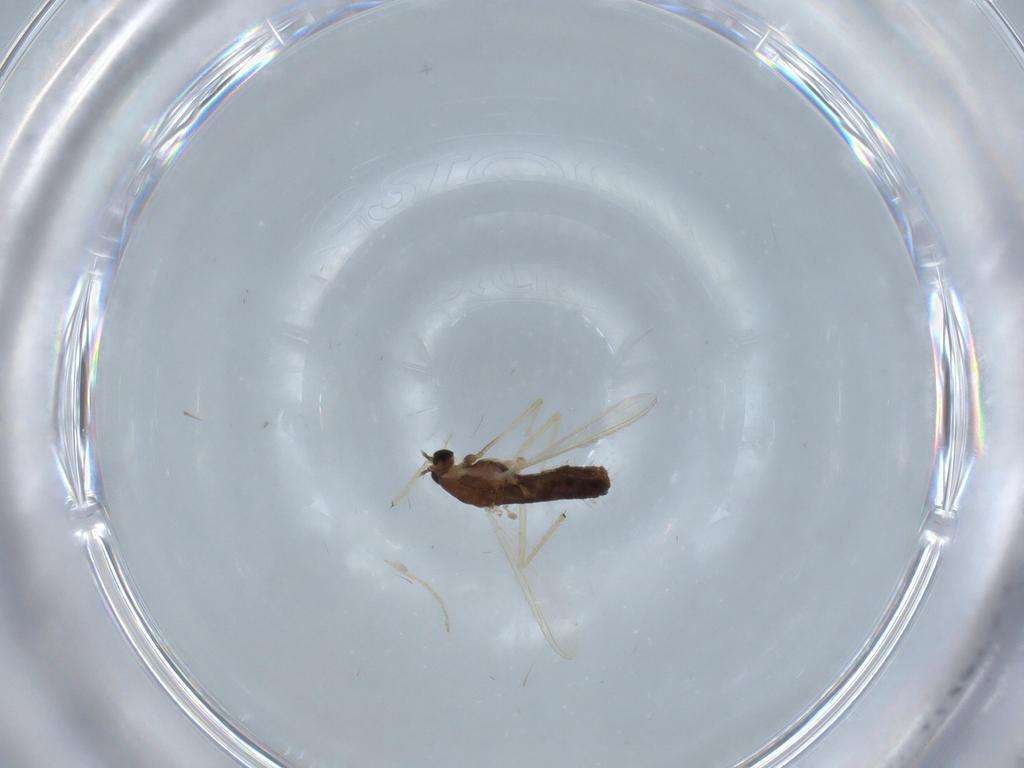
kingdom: Animalia
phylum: Arthropoda
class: Insecta
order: Diptera
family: Chironomidae
